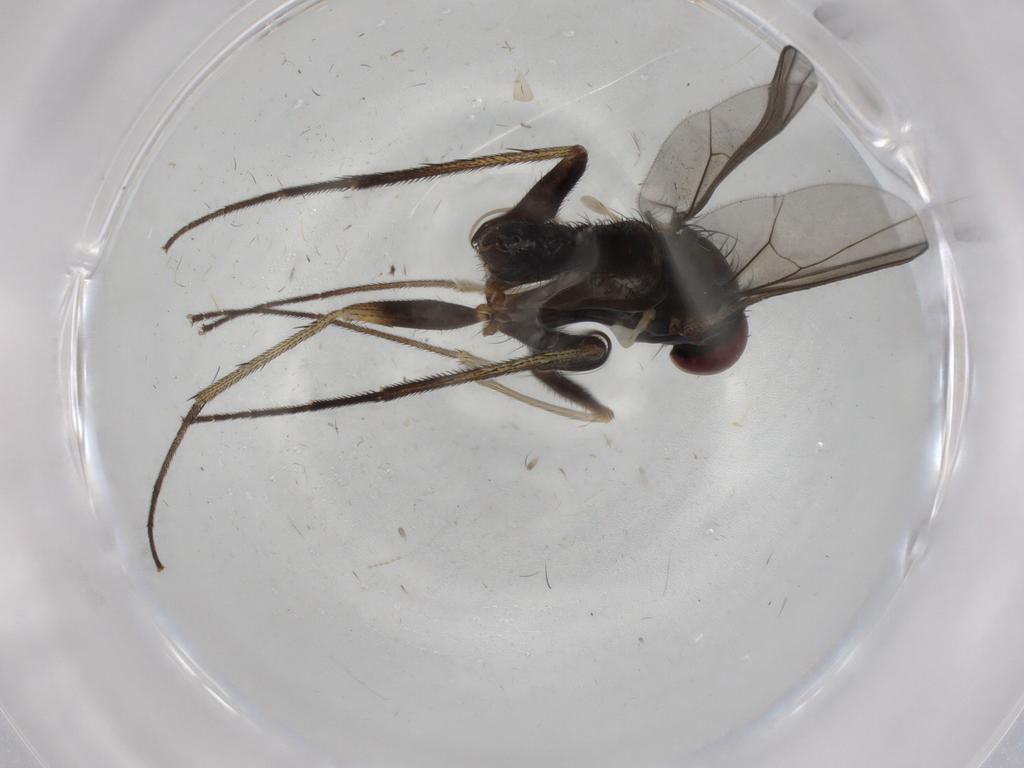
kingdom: Animalia
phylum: Arthropoda
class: Insecta
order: Diptera
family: Dolichopodidae
